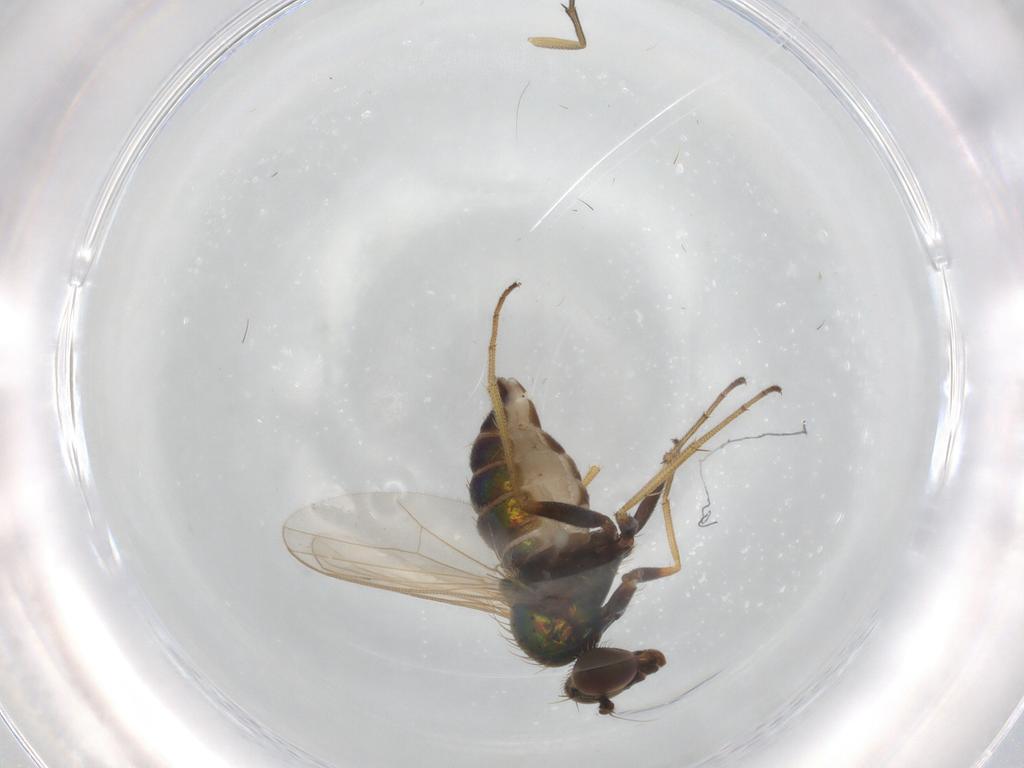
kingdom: Animalia
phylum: Arthropoda
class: Insecta
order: Diptera
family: Dolichopodidae
